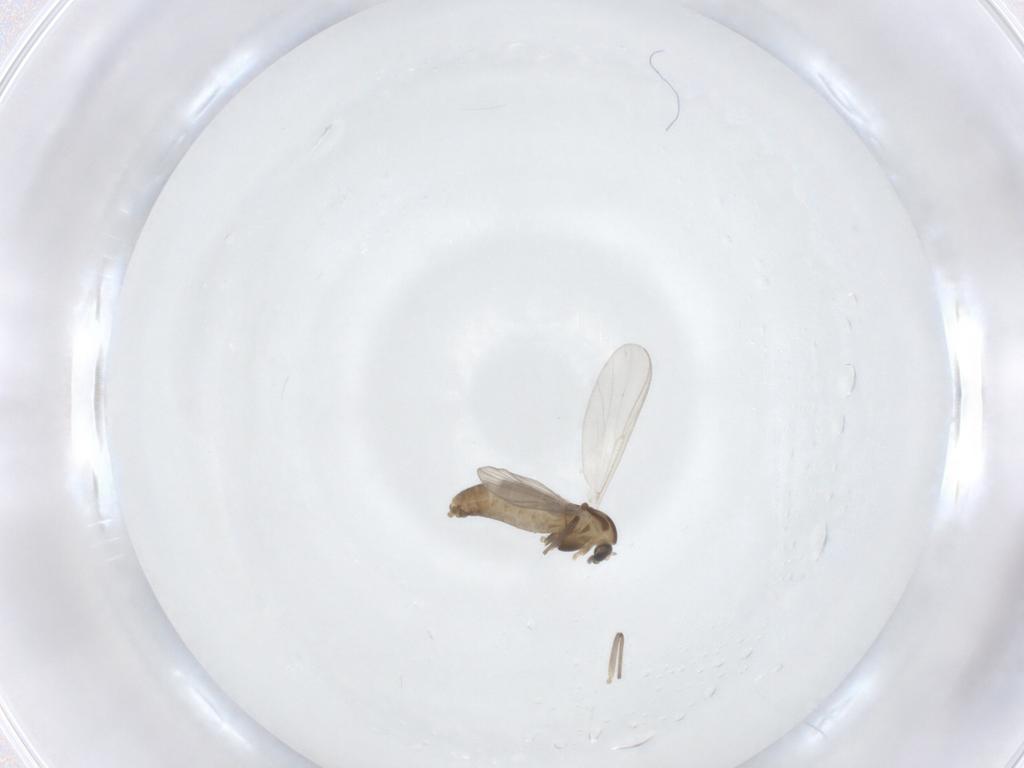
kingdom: Animalia
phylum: Arthropoda
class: Insecta
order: Diptera
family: Chironomidae
